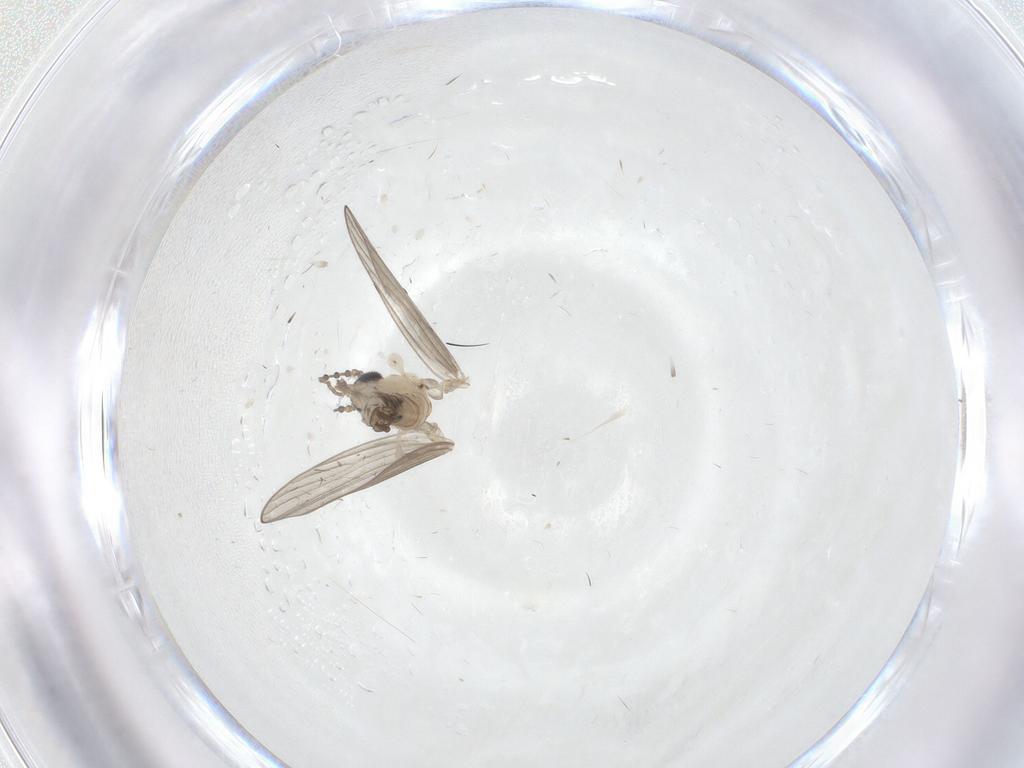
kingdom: Animalia
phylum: Arthropoda
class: Insecta
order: Diptera
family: Psychodidae
